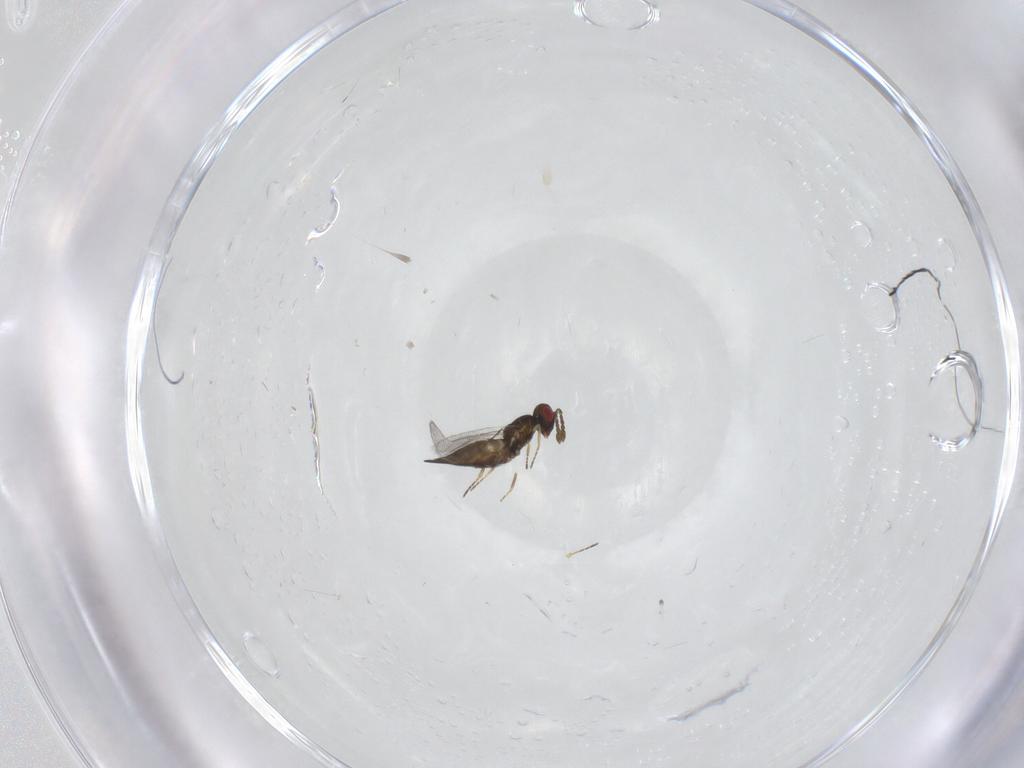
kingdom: Animalia
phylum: Arthropoda
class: Insecta
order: Hymenoptera
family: Eulophidae
